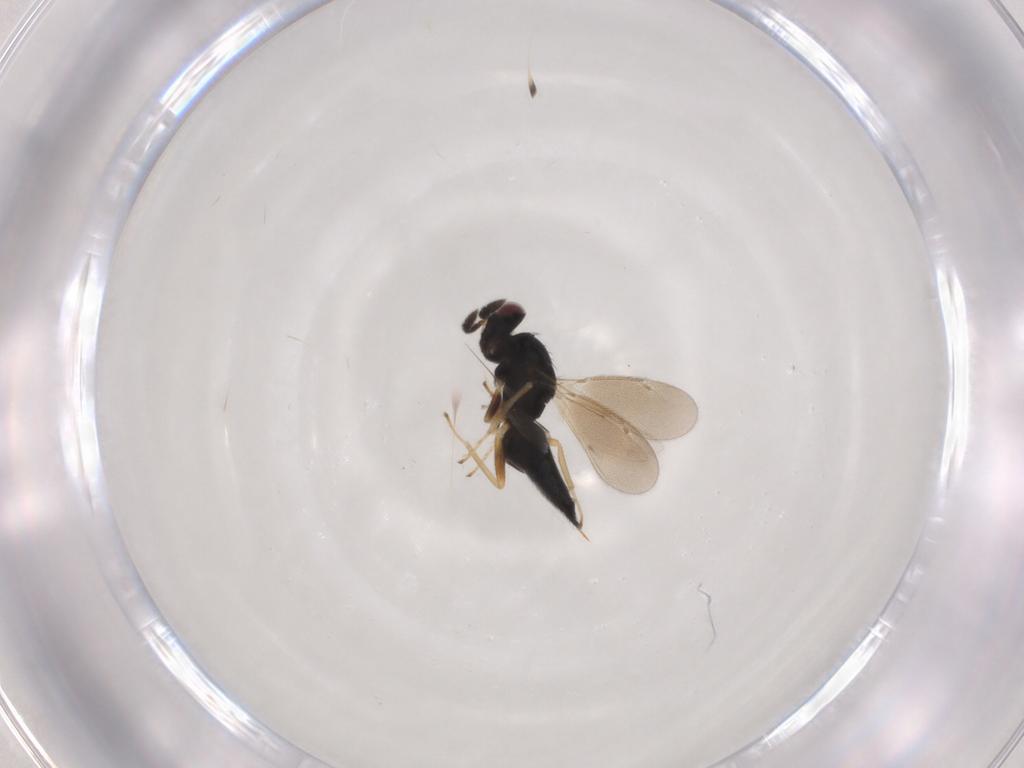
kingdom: Animalia
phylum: Arthropoda
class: Insecta
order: Hymenoptera
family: Eulophidae
